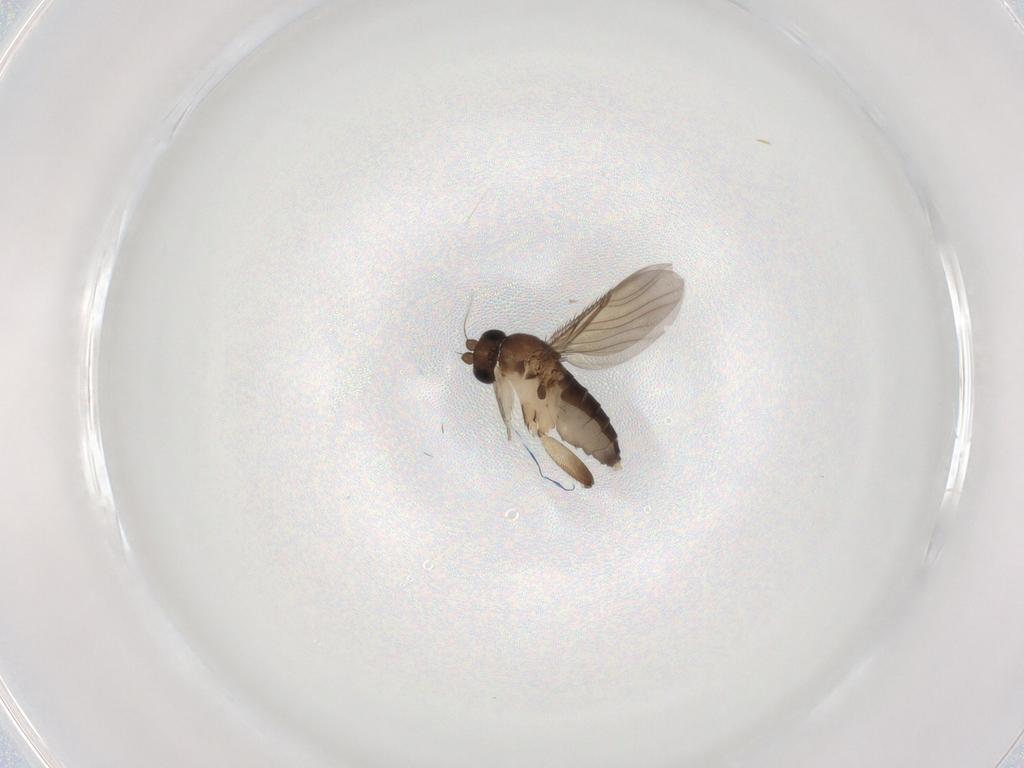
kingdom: Animalia
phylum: Arthropoda
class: Insecta
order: Diptera
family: Phoridae
